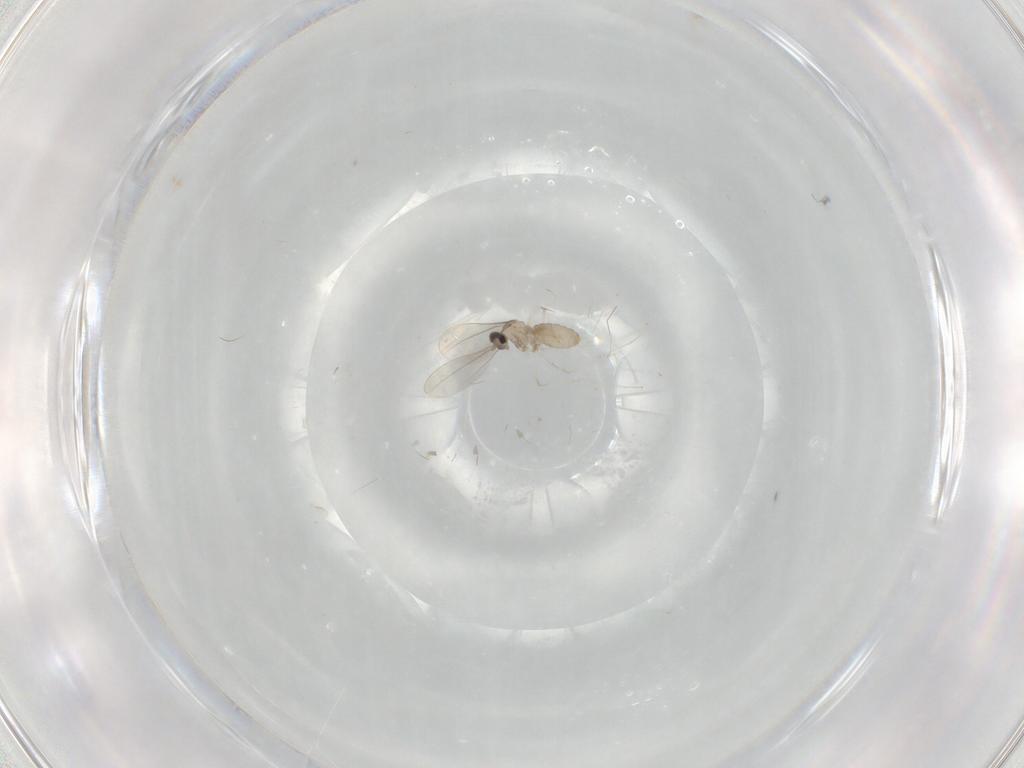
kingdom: Animalia
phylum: Arthropoda
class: Insecta
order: Diptera
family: Cecidomyiidae
